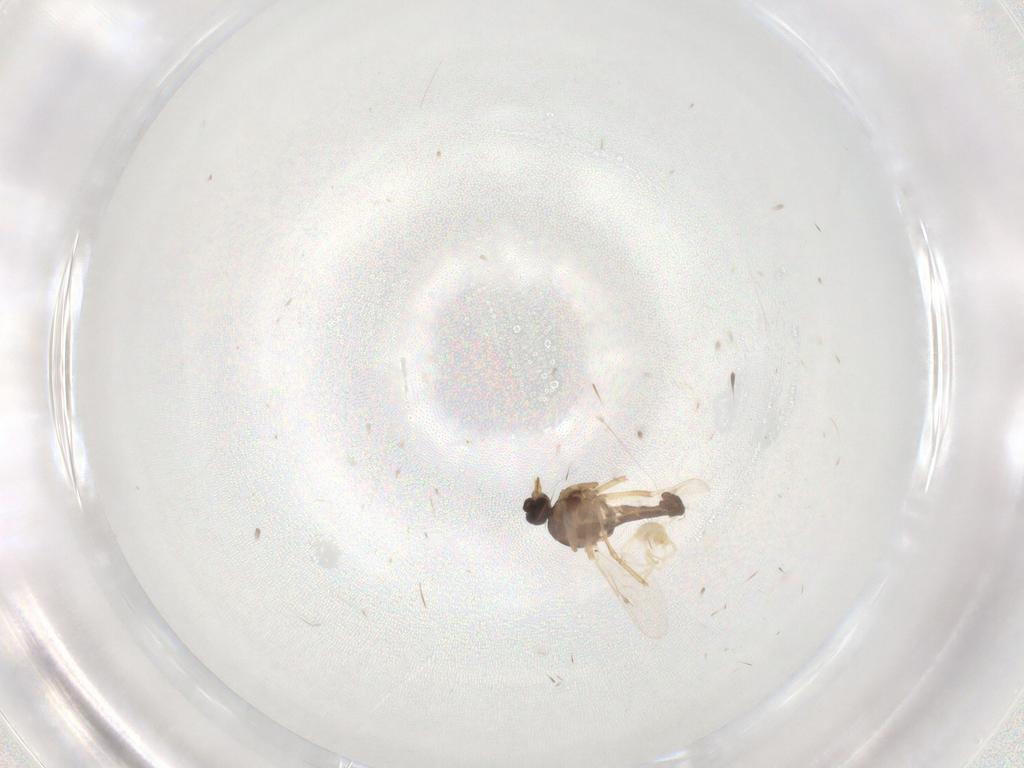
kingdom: Animalia
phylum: Arthropoda
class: Insecta
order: Diptera
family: Ceratopogonidae
